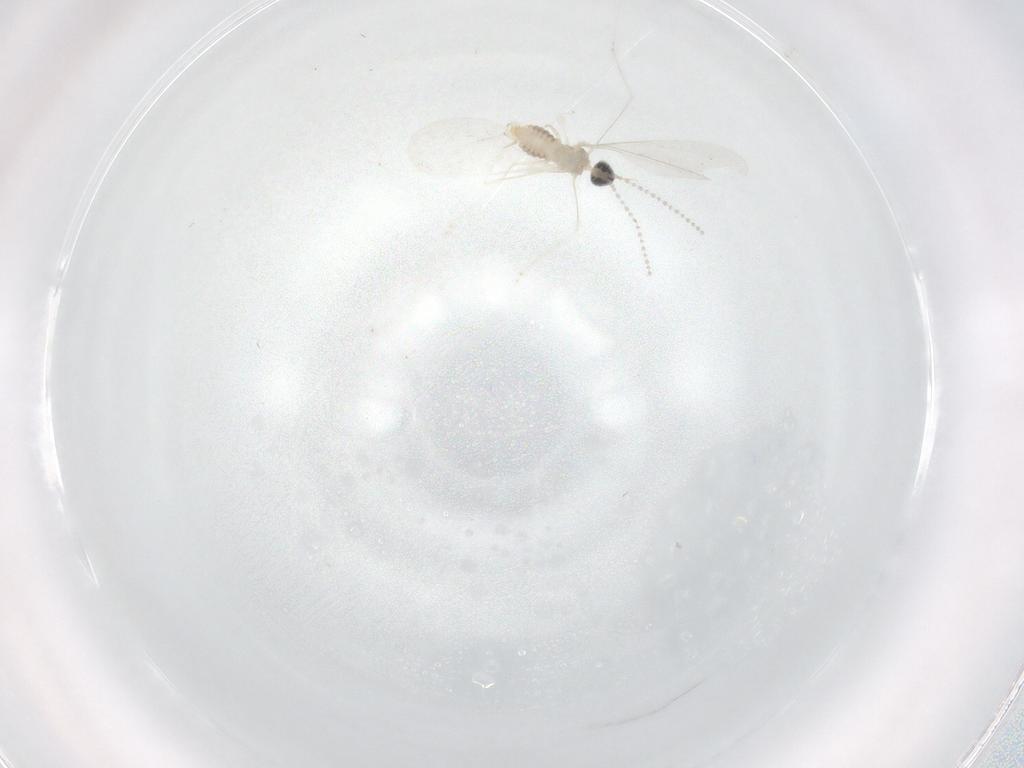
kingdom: Animalia
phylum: Arthropoda
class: Insecta
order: Diptera
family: Cecidomyiidae
